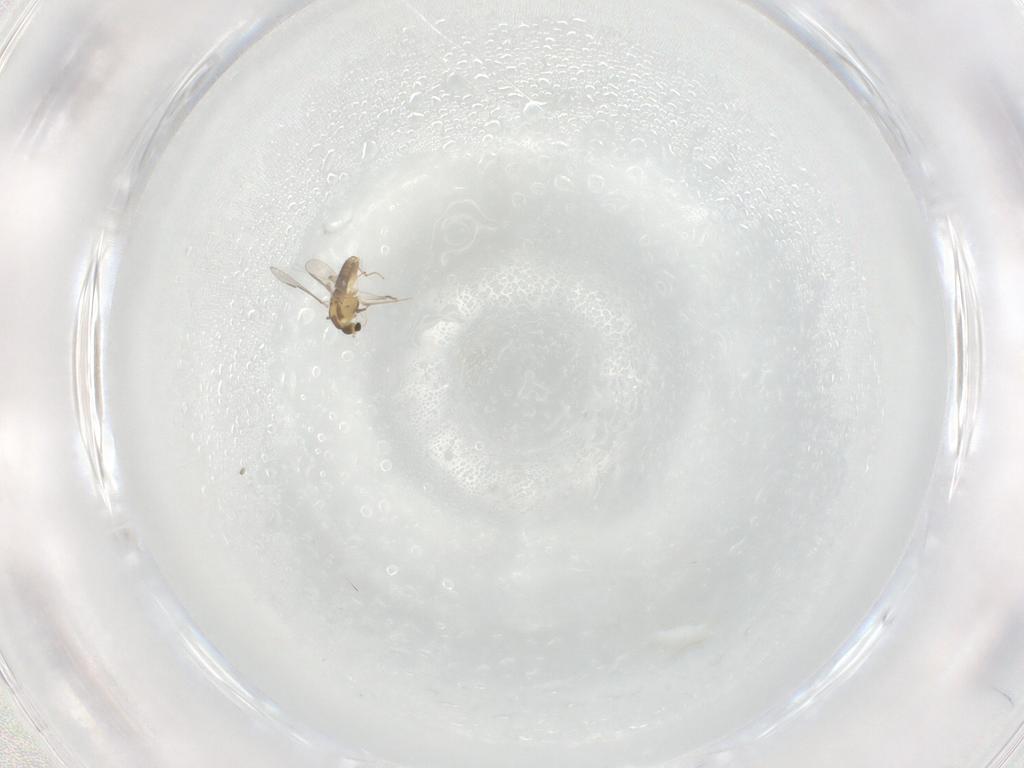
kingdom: Animalia
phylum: Arthropoda
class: Insecta
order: Diptera
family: Chironomidae
